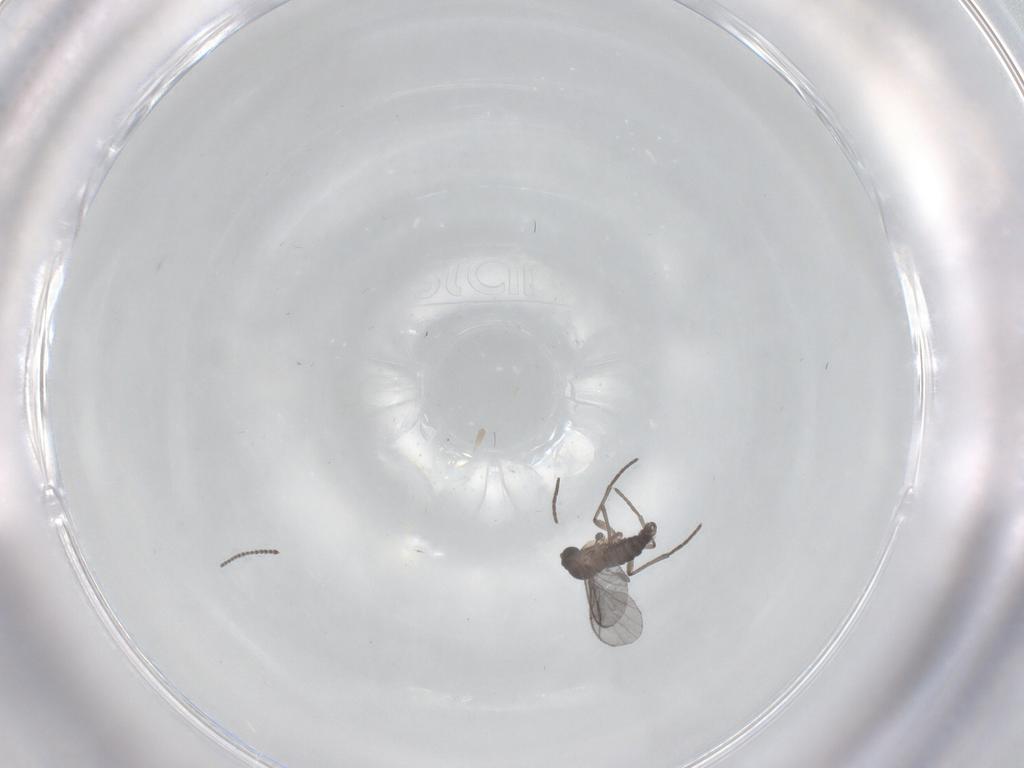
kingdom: Animalia
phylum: Arthropoda
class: Insecta
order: Diptera
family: Sciaridae
